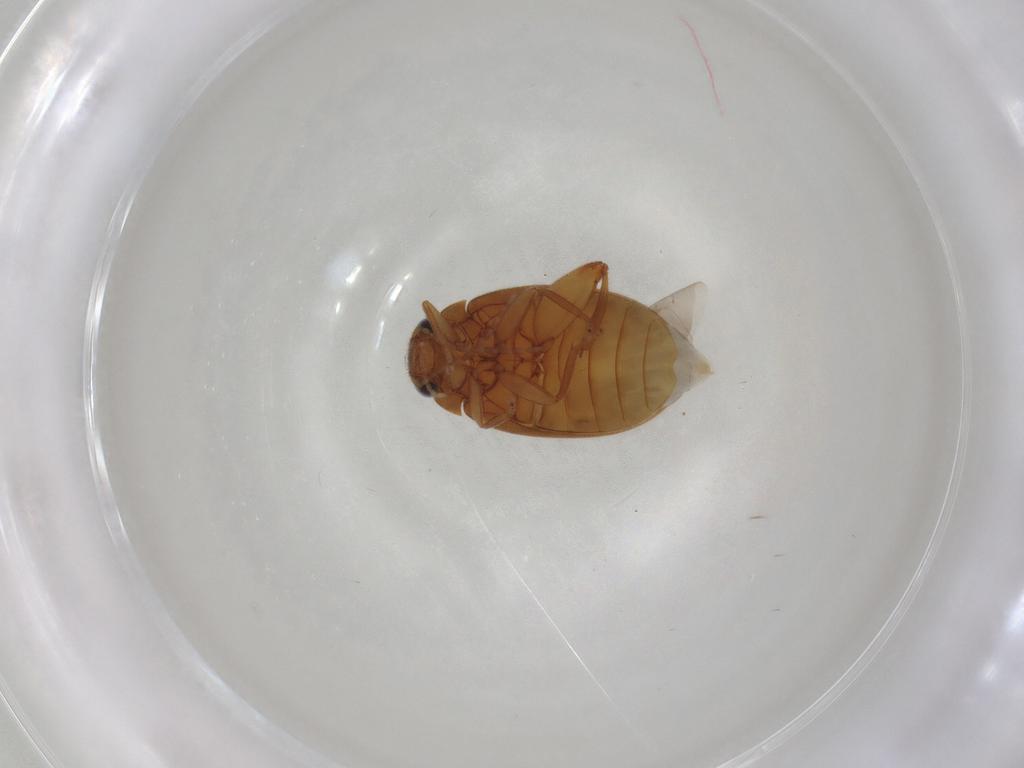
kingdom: Animalia
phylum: Arthropoda
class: Insecta
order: Coleoptera
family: Scirtidae
